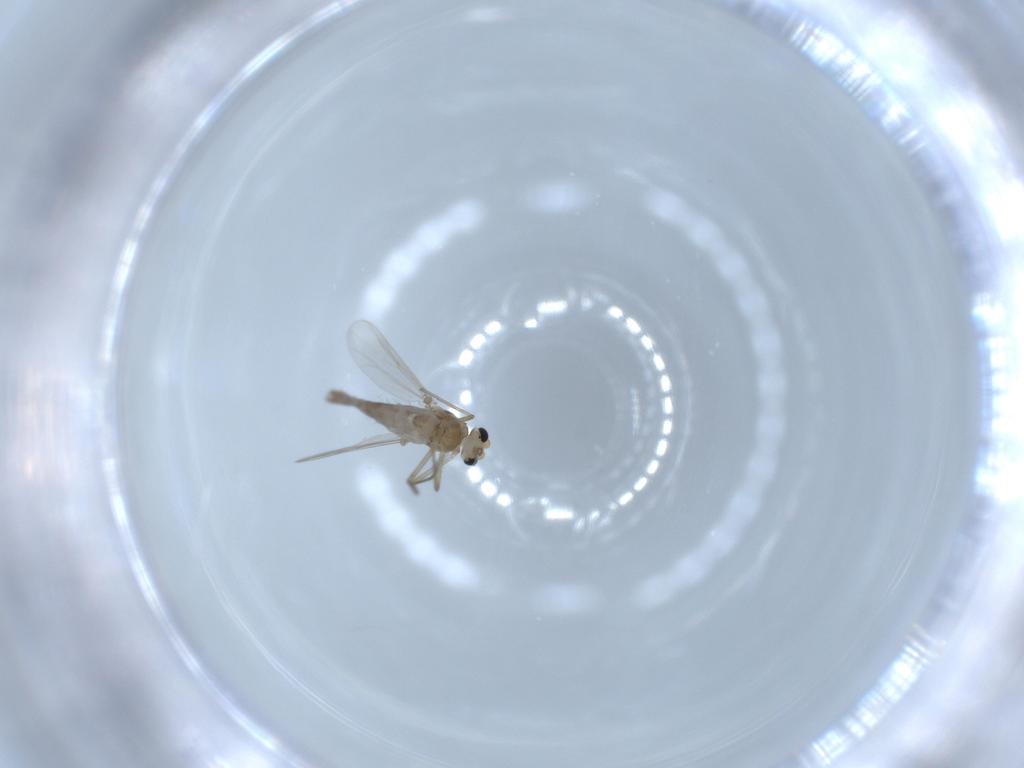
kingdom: Animalia
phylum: Arthropoda
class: Insecta
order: Diptera
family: Chironomidae
